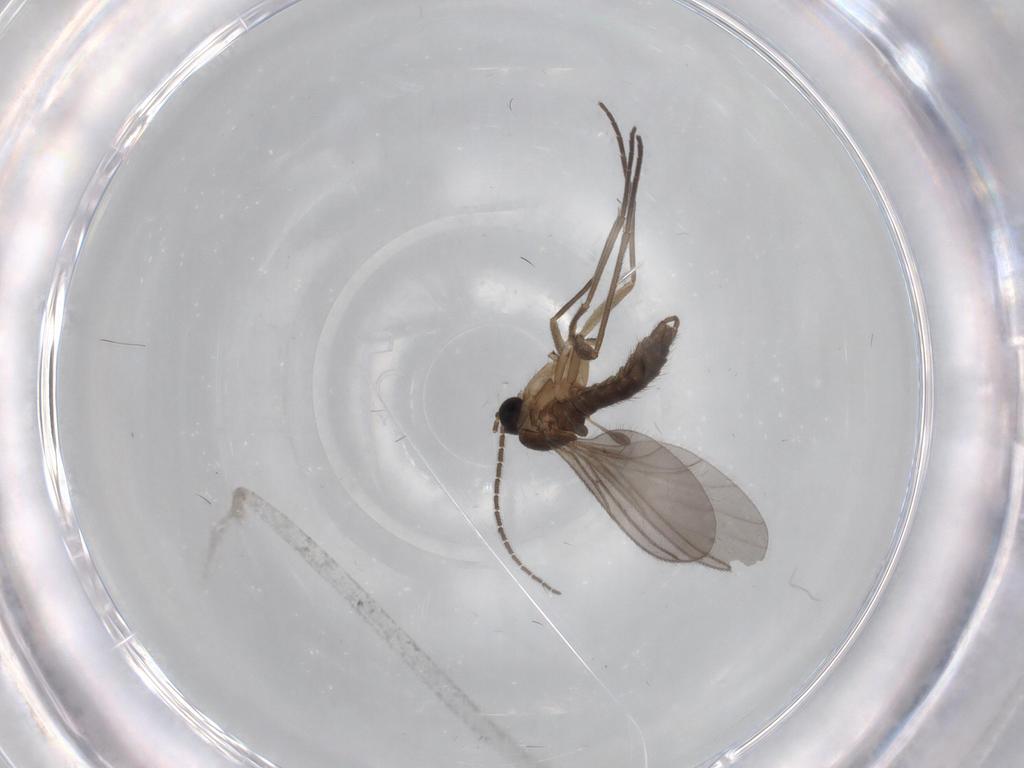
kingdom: Animalia
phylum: Arthropoda
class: Insecta
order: Diptera
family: Sciaridae
